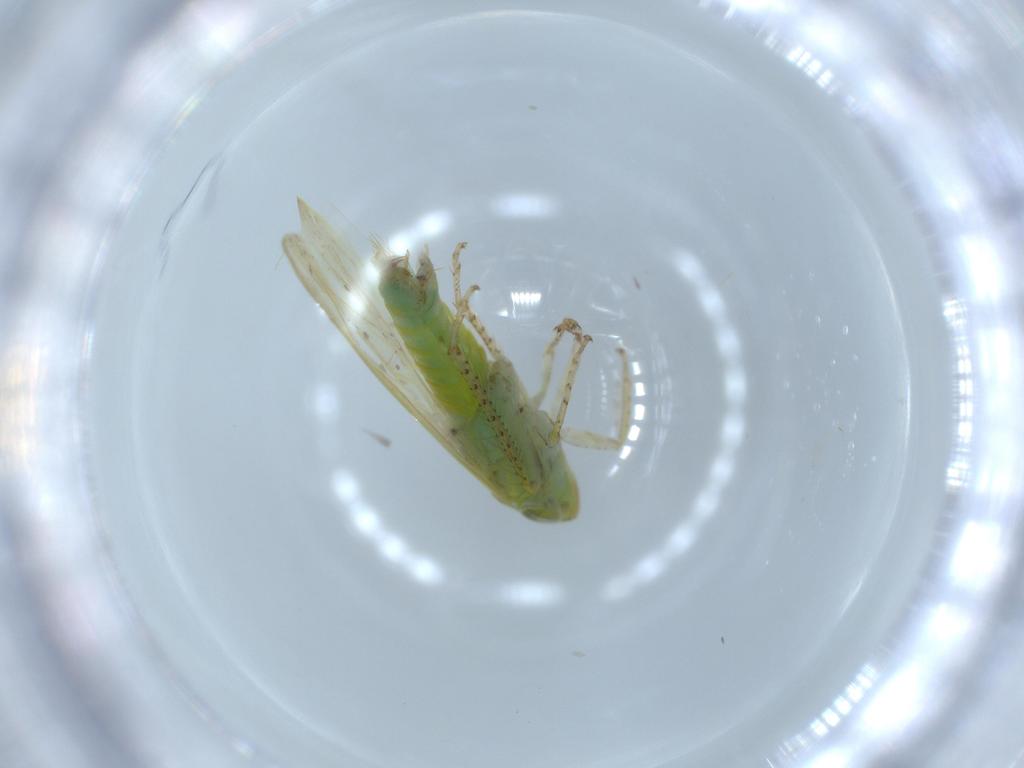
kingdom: Animalia
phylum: Arthropoda
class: Insecta
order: Hemiptera
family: Cicadellidae
